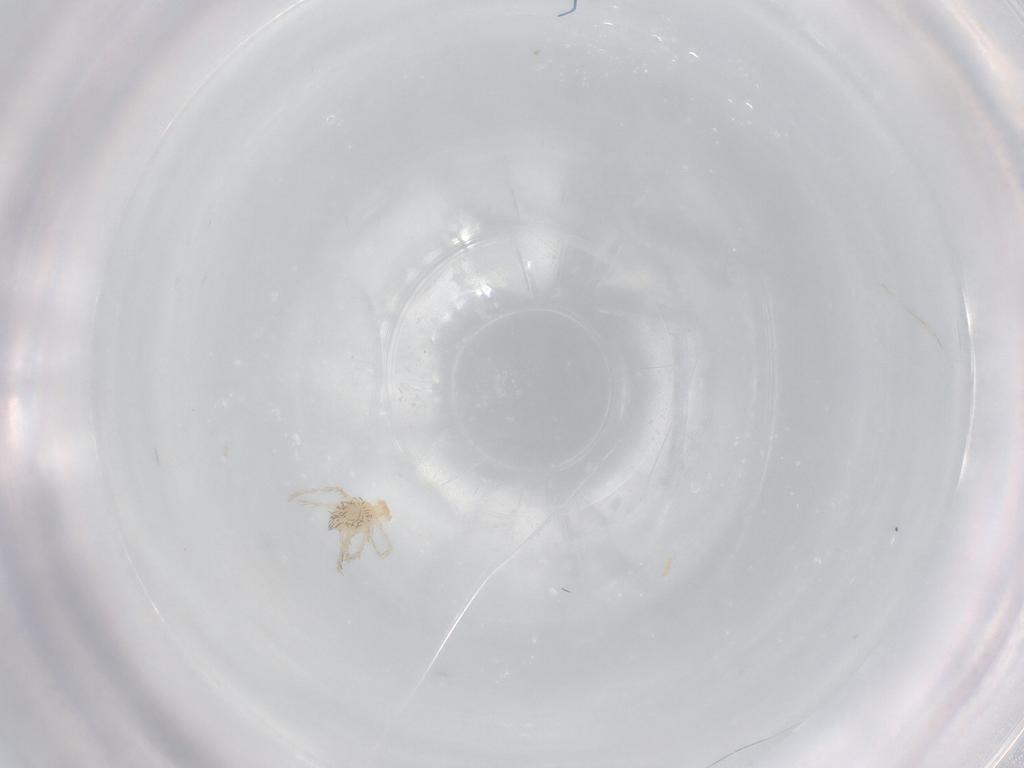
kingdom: Animalia
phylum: Arthropoda
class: Arachnida
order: Trombidiformes
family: Erythraeidae
